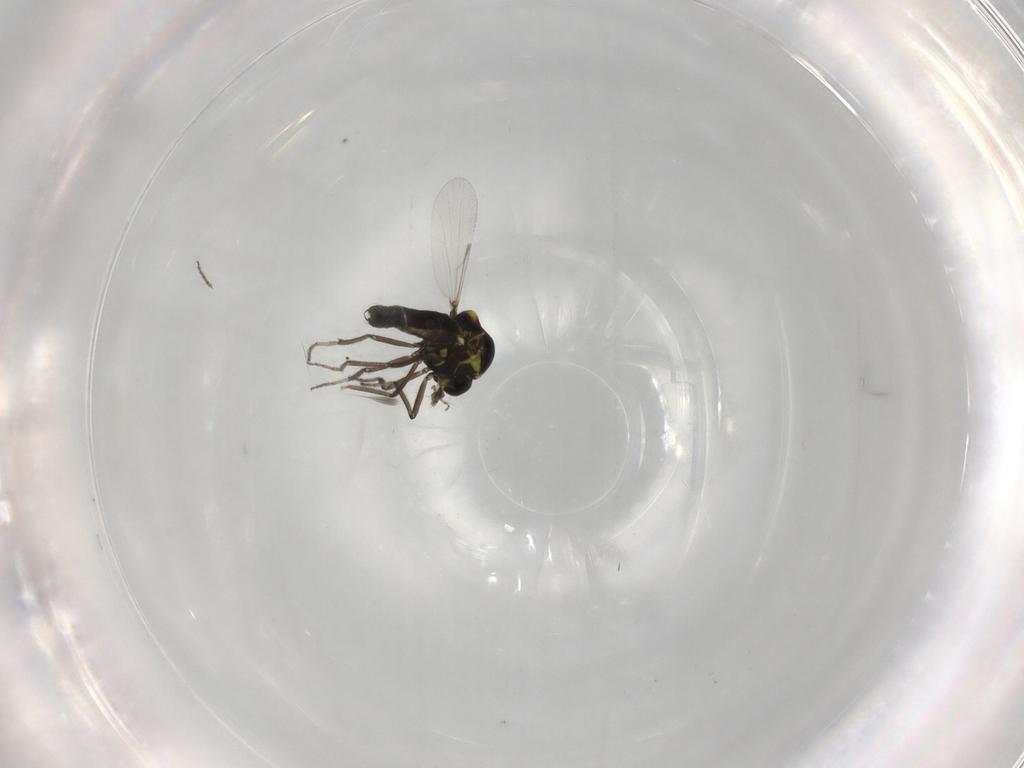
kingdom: Animalia
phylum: Arthropoda
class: Insecta
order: Diptera
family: Ceratopogonidae
